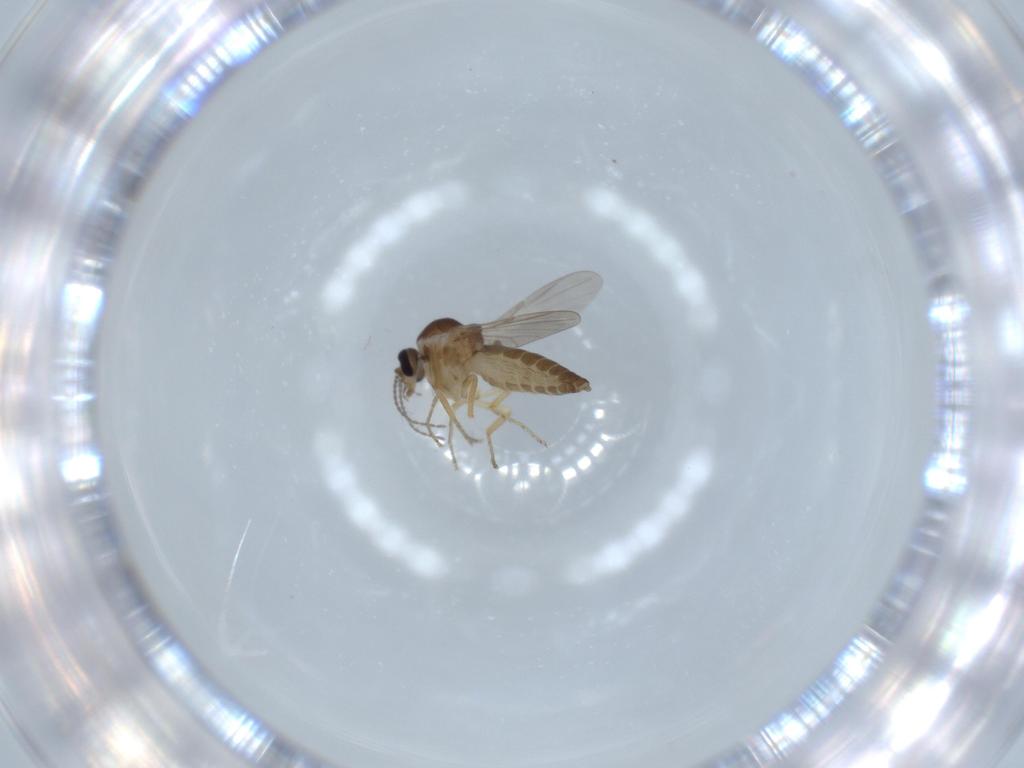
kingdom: Animalia
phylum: Arthropoda
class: Insecta
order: Diptera
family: Ceratopogonidae
